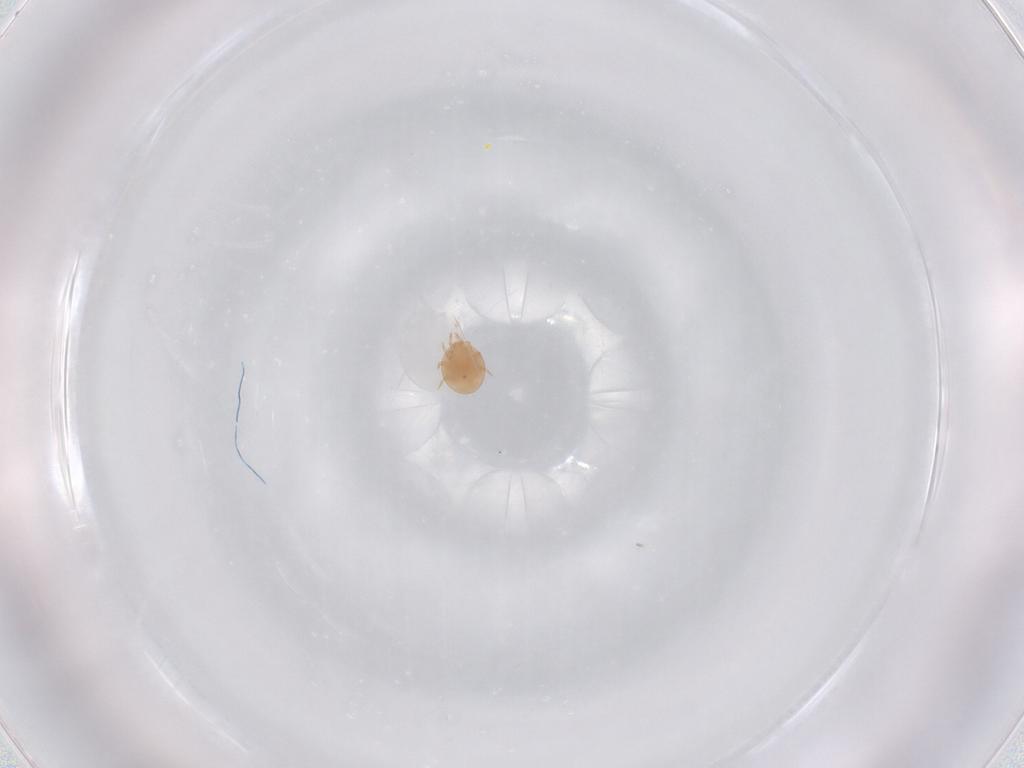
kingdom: Animalia
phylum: Arthropoda
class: Arachnida
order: Mesostigmata
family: Trematuridae
